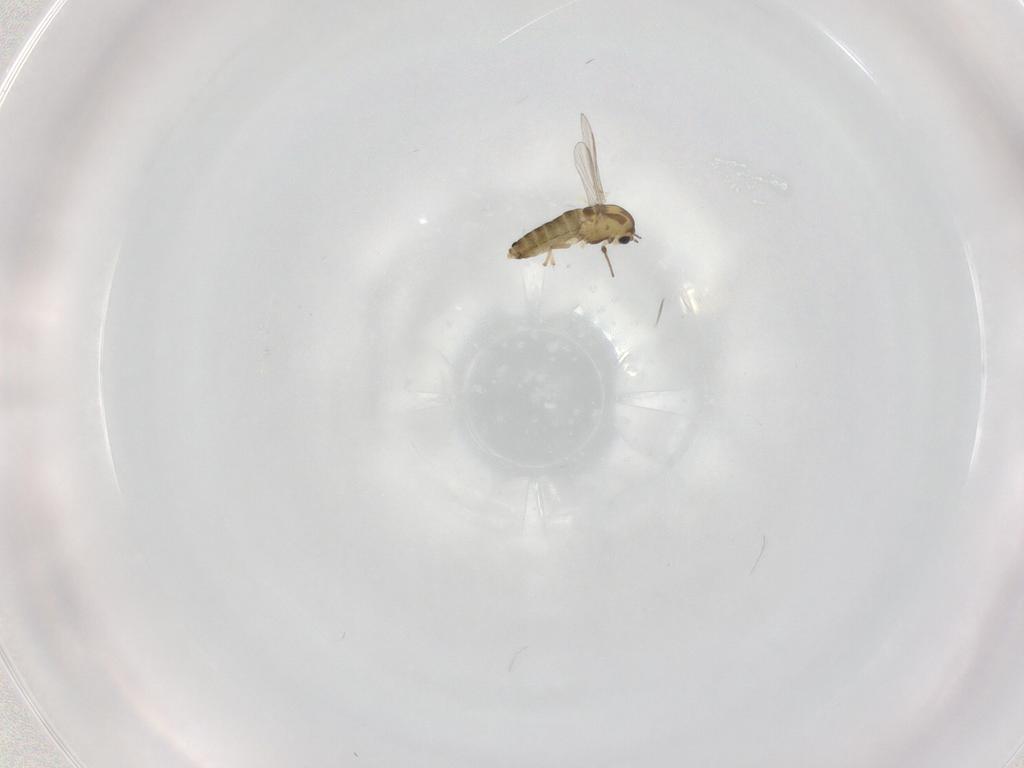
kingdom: Animalia
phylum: Arthropoda
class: Insecta
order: Diptera
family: Chironomidae
